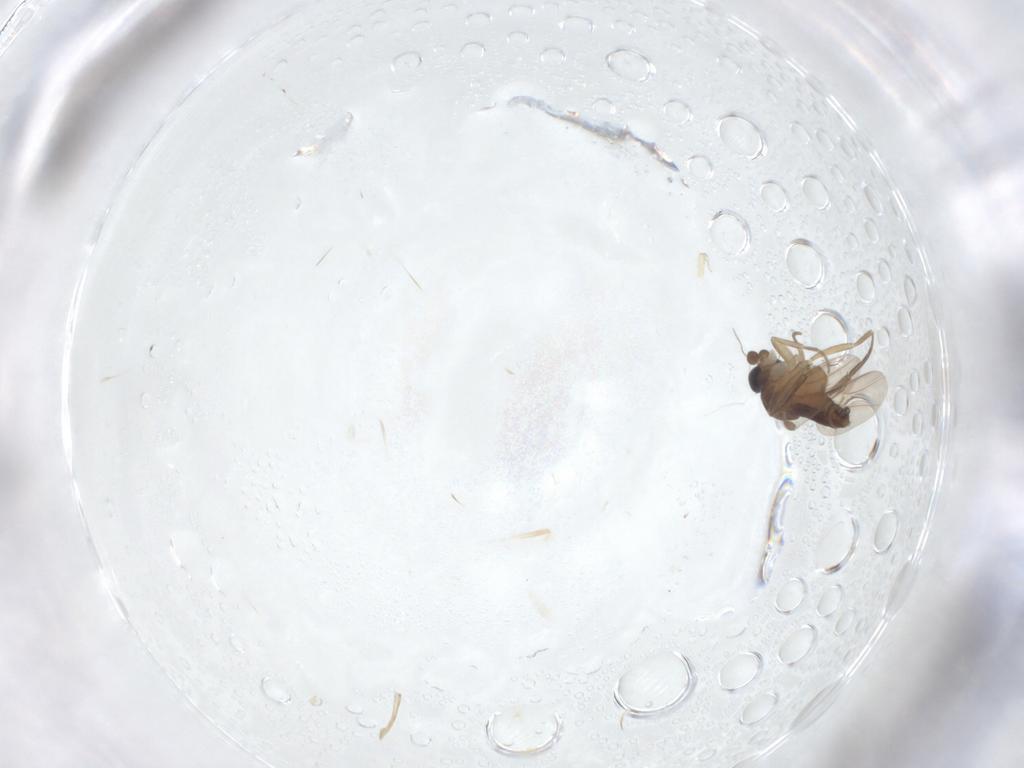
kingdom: Animalia
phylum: Arthropoda
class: Insecta
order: Diptera
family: Phoridae
